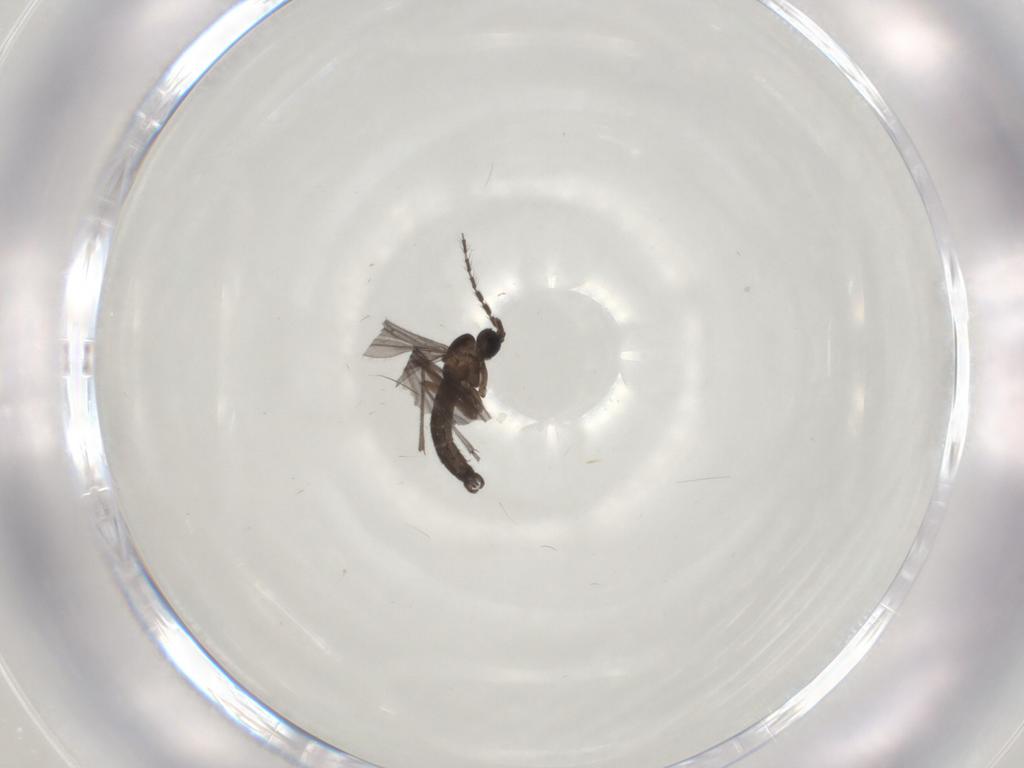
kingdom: Animalia
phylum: Arthropoda
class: Insecta
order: Diptera
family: Sciaridae
